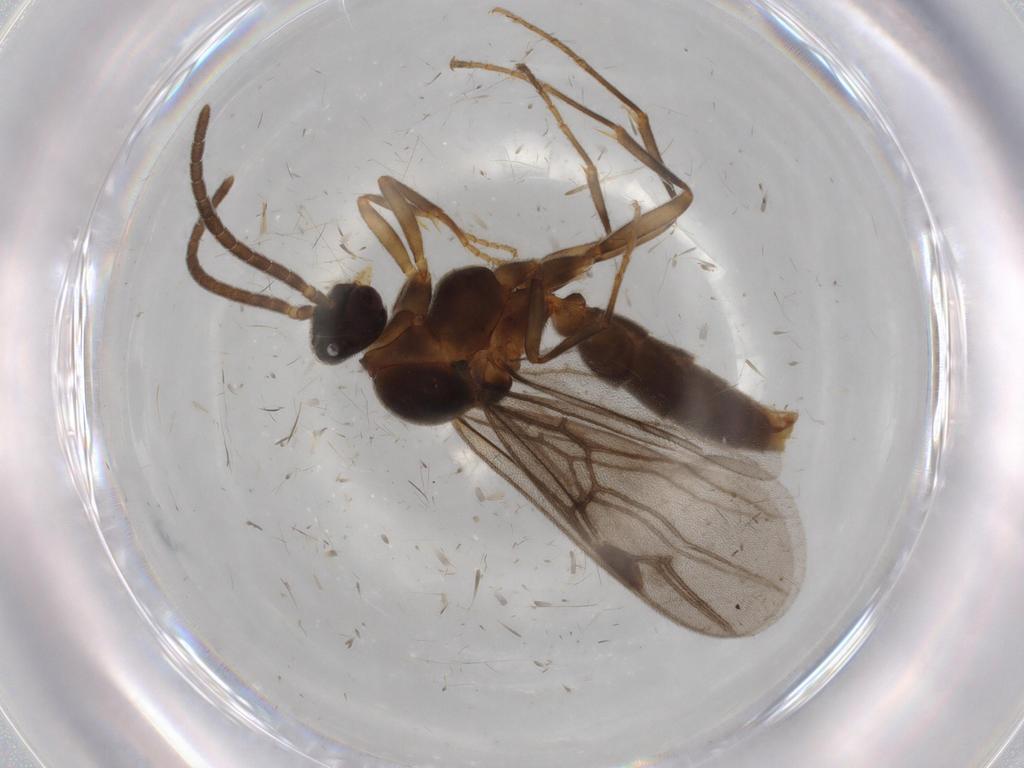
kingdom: Animalia
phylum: Arthropoda
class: Insecta
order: Hymenoptera
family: Formicidae
